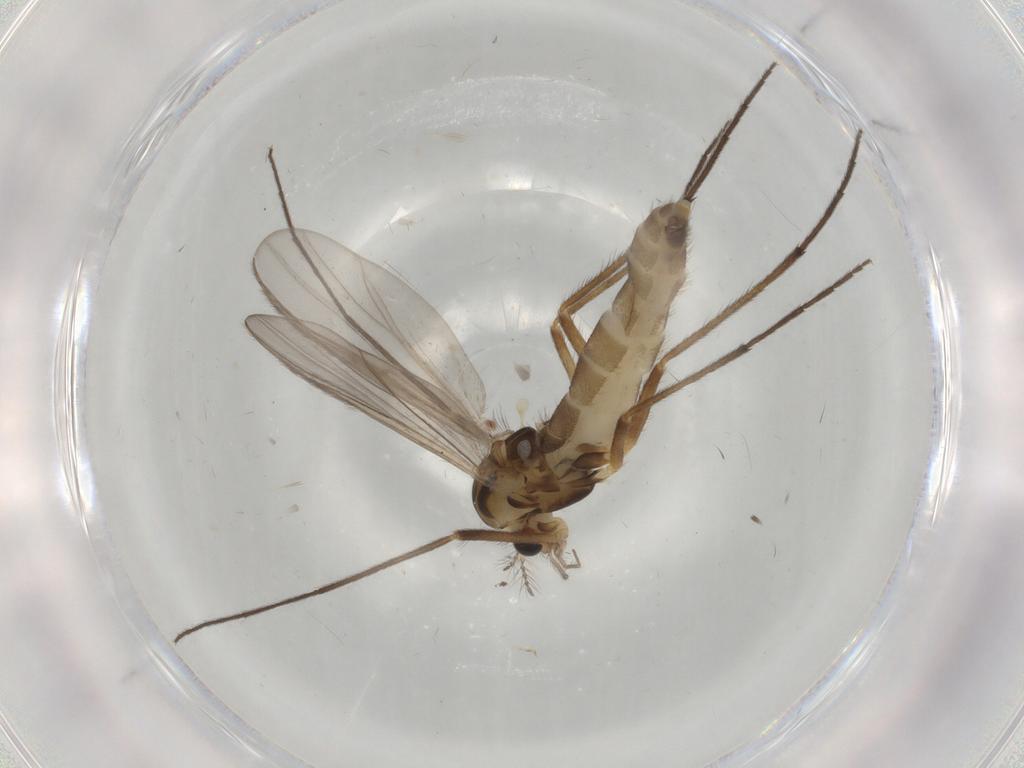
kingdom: Animalia
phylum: Arthropoda
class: Insecta
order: Diptera
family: Chironomidae
